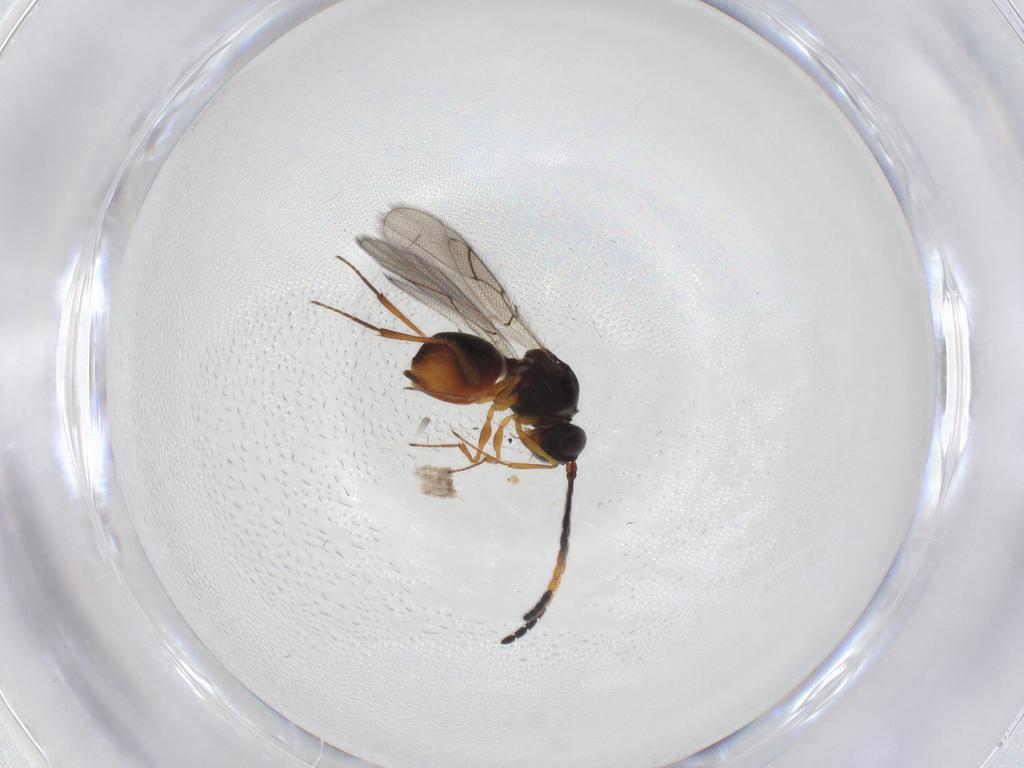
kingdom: Animalia
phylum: Arthropoda
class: Insecta
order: Hymenoptera
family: Figitidae
